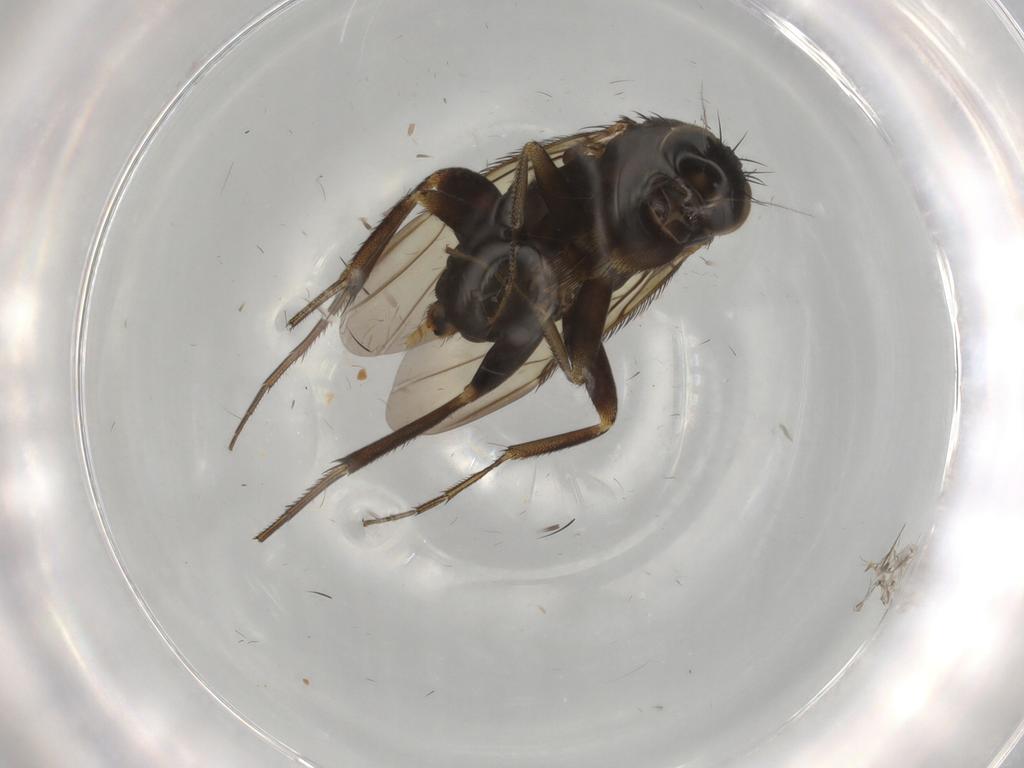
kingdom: Animalia
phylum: Arthropoda
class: Insecta
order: Diptera
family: Phoridae
